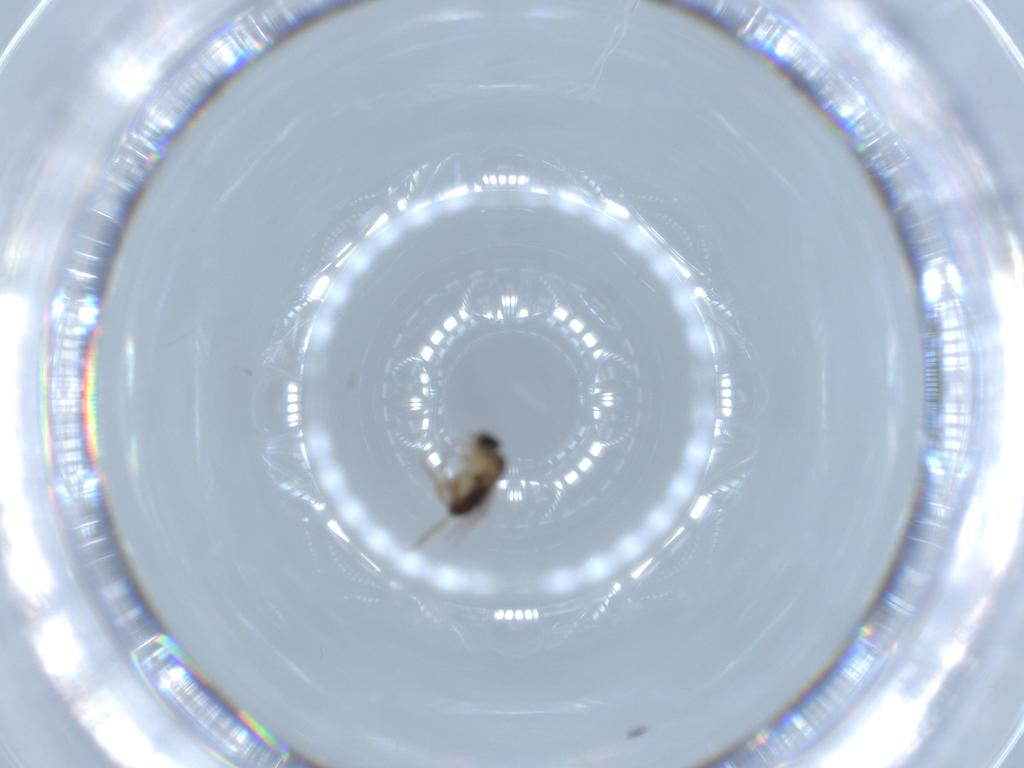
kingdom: Animalia
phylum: Arthropoda
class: Insecta
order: Diptera
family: Phoridae
